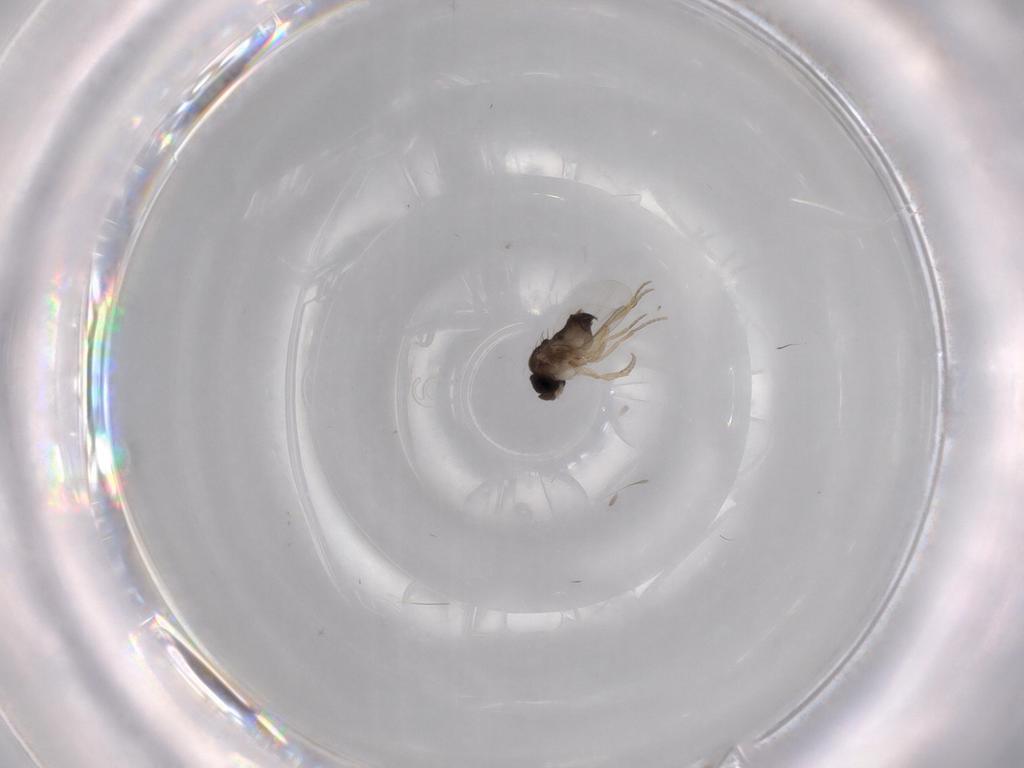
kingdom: Animalia
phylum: Arthropoda
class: Insecta
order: Diptera
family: Phoridae
